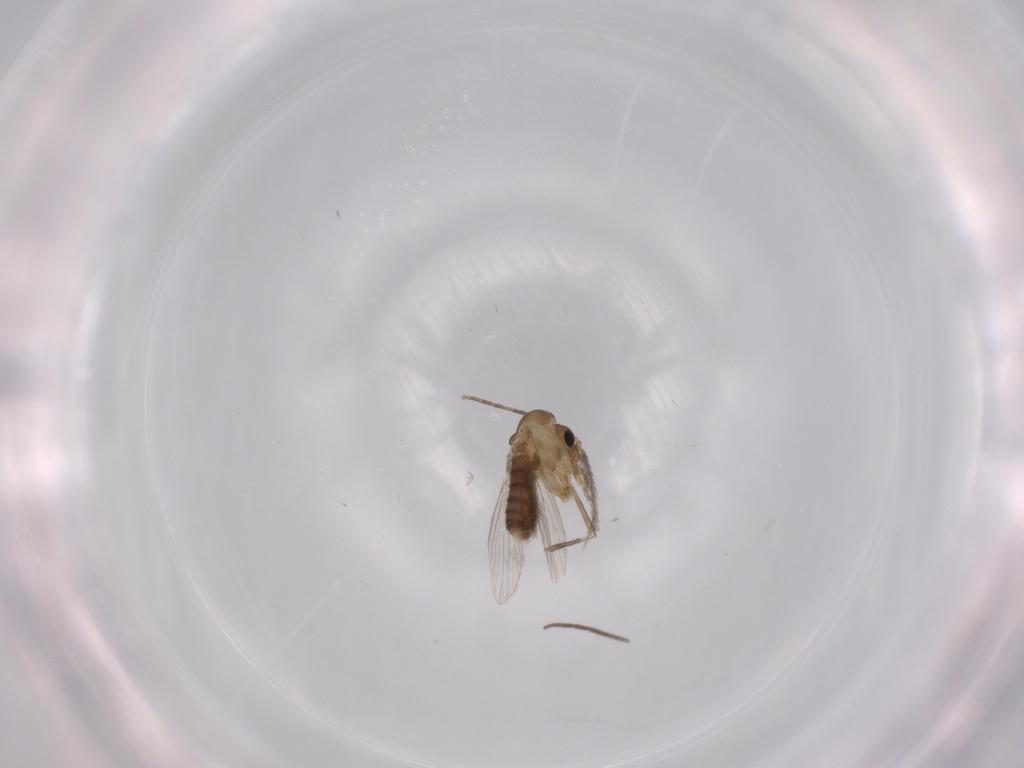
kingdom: Animalia
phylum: Arthropoda
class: Insecta
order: Diptera
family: Psychodidae
